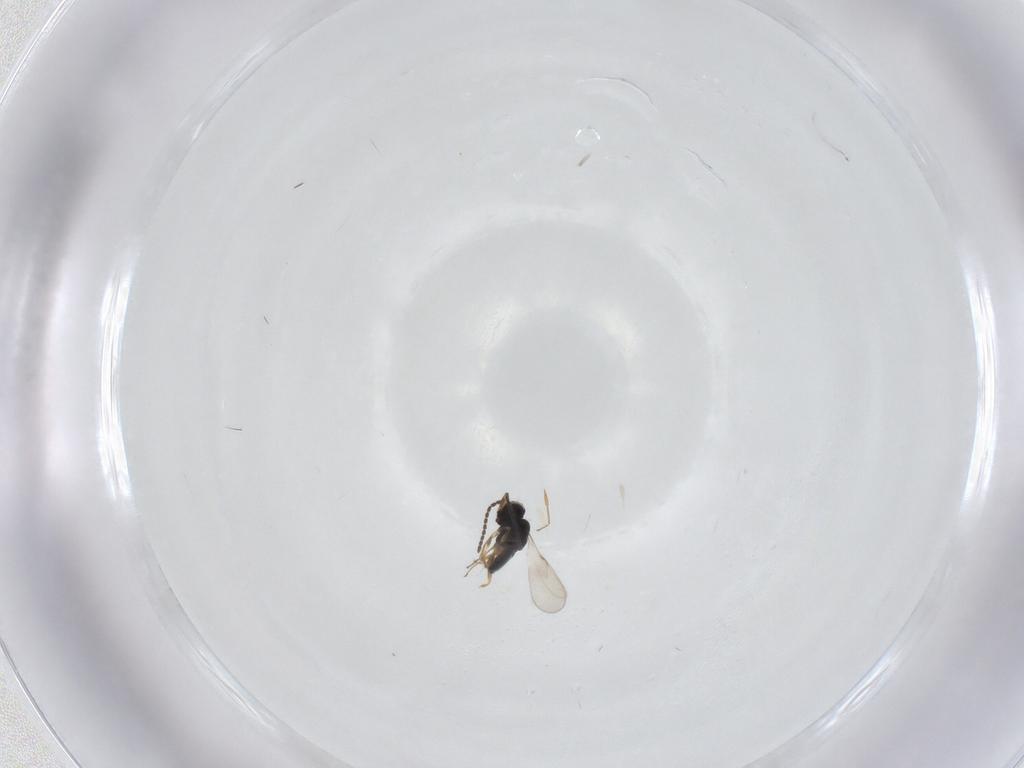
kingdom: Animalia
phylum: Arthropoda
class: Insecta
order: Hymenoptera
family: Scelionidae
